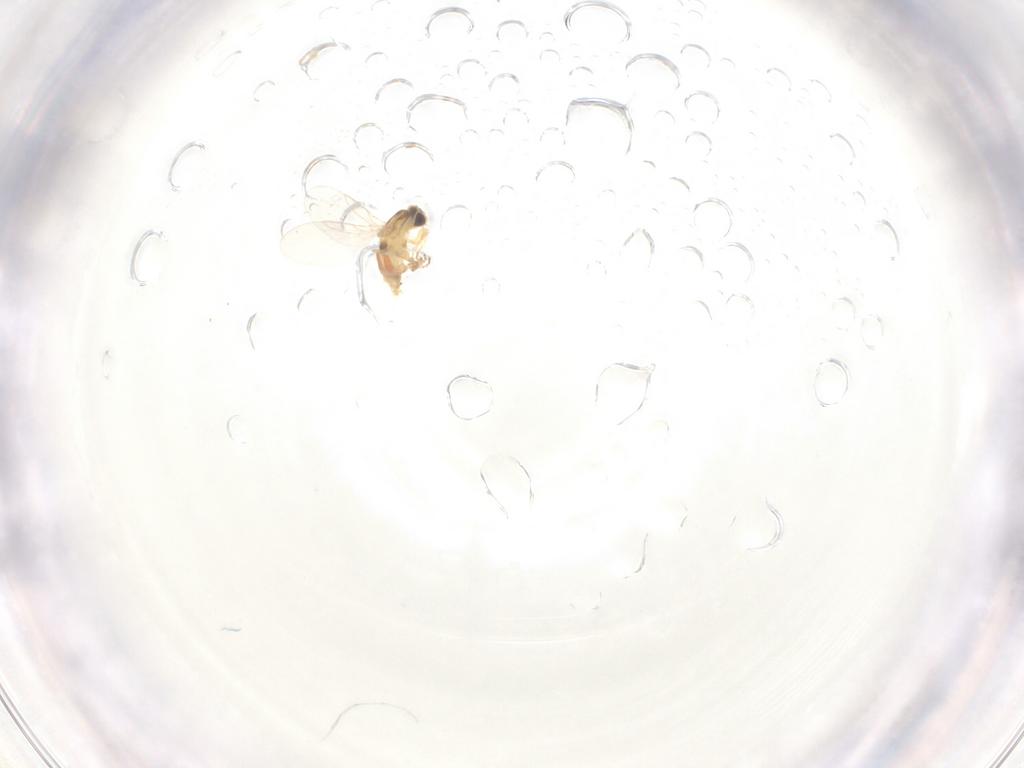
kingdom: Animalia
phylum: Arthropoda
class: Insecta
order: Diptera
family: Agromyzidae
